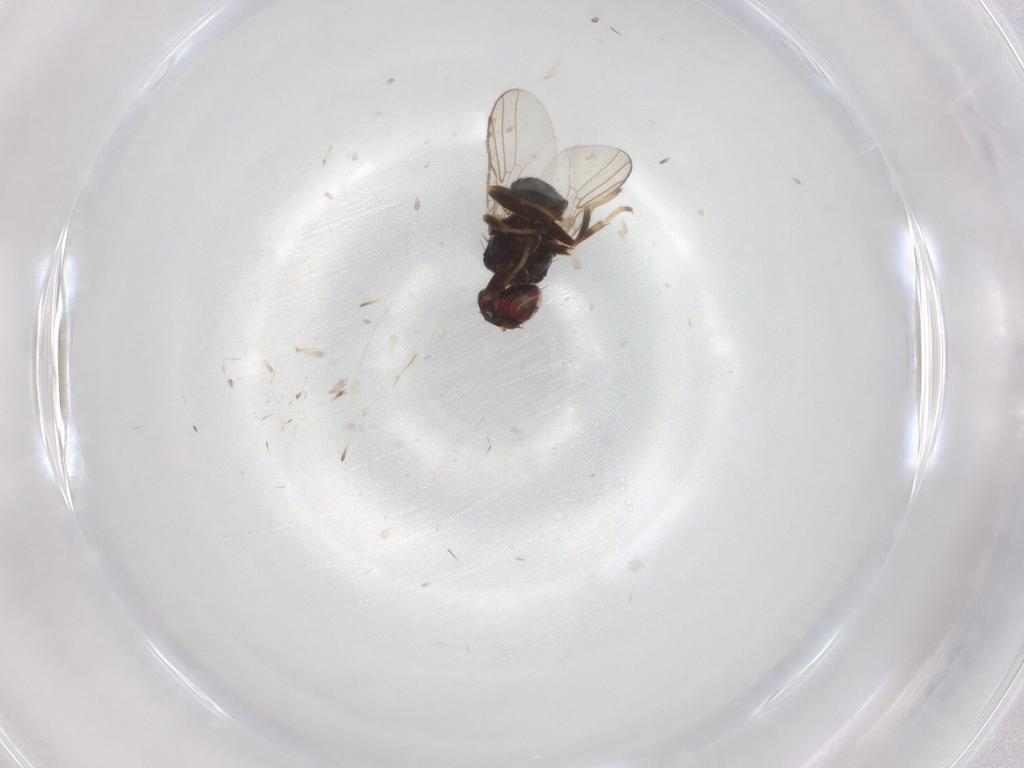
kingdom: Animalia
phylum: Arthropoda
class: Insecta
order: Diptera
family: Chloropidae
